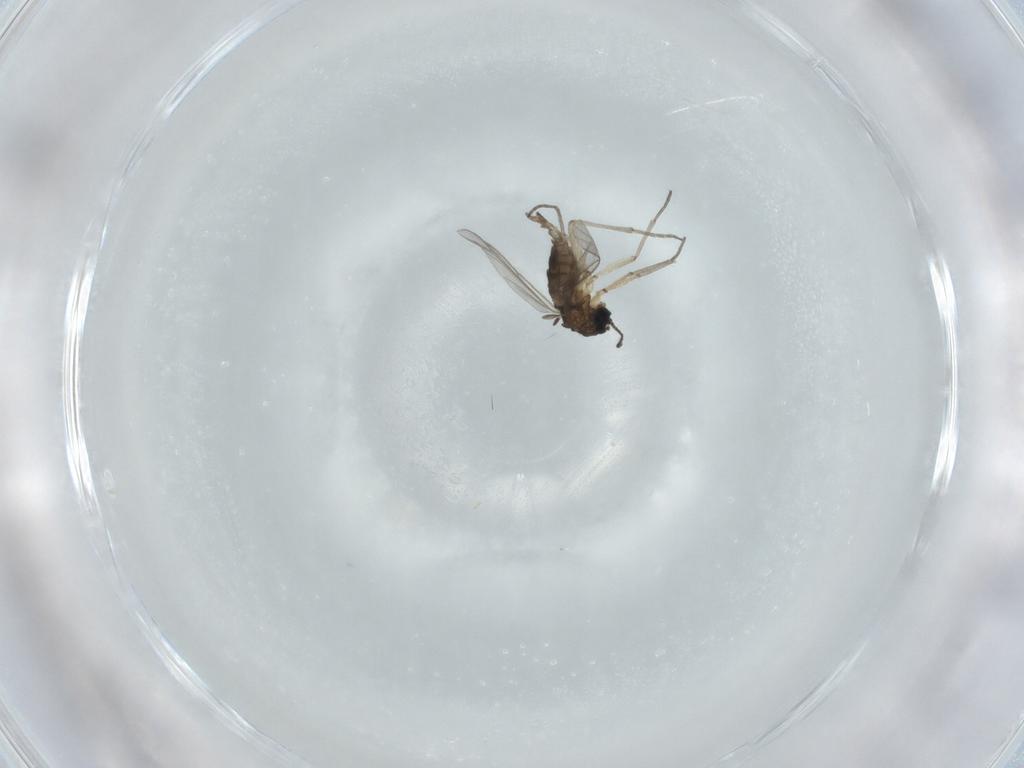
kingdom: Animalia
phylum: Arthropoda
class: Insecta
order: Diptera
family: Sciaridae
